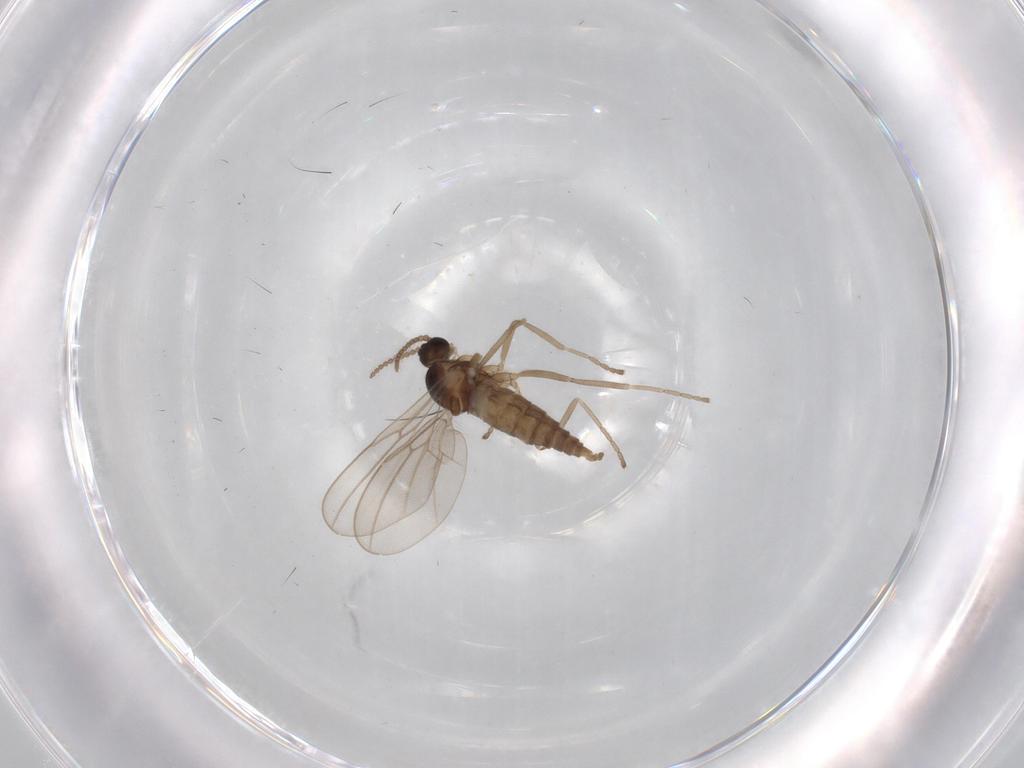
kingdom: Animalia
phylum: Arthropoda
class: Insecta
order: Diptera
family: Cecidomyiidae
